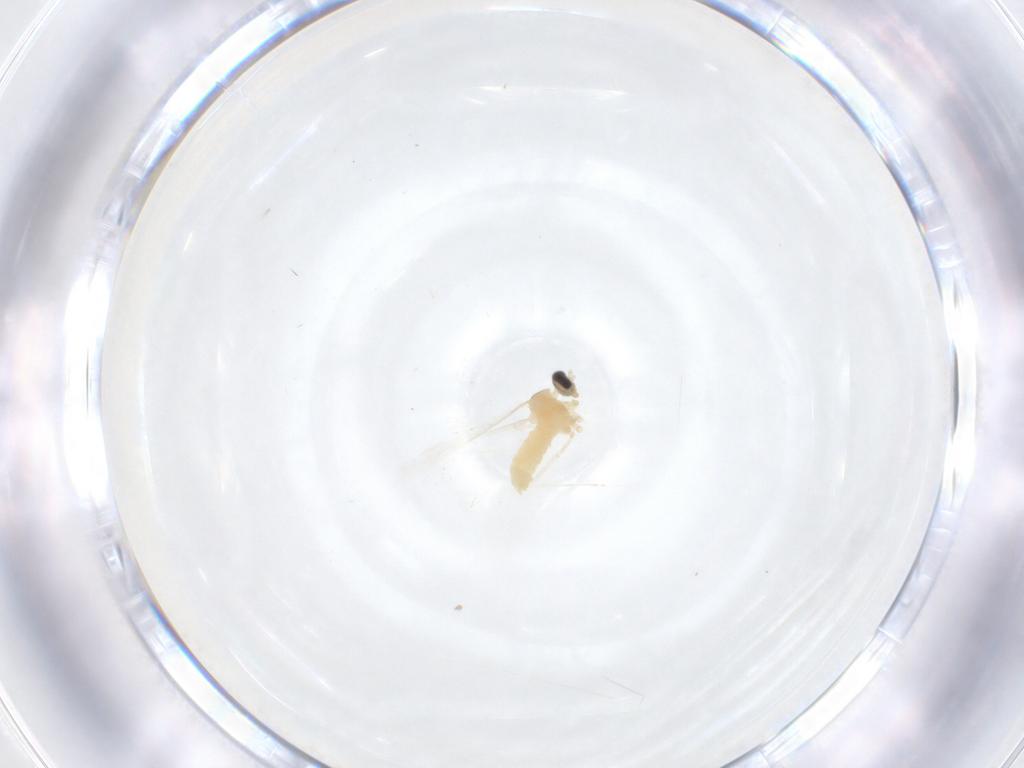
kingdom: Animalia
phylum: Arthropoda
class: Insecta
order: Diptera
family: Cecidomyiidae
